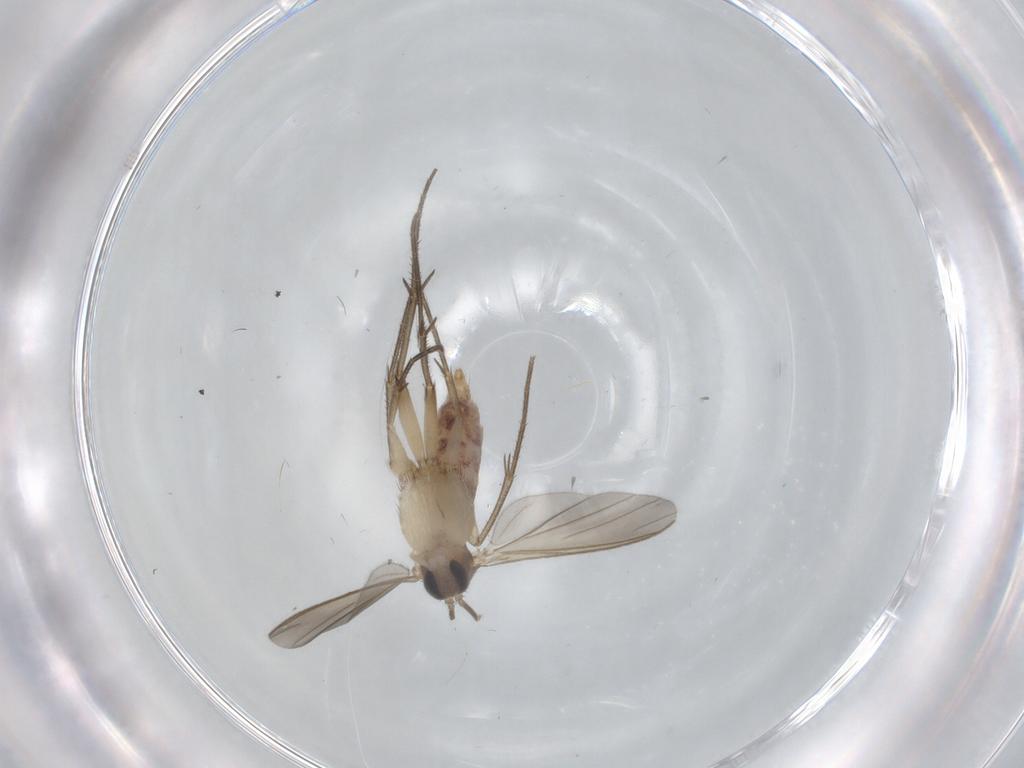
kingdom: Animalia
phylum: Arthropoda
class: Insecta
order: Diptera
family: Mycetophilidae
